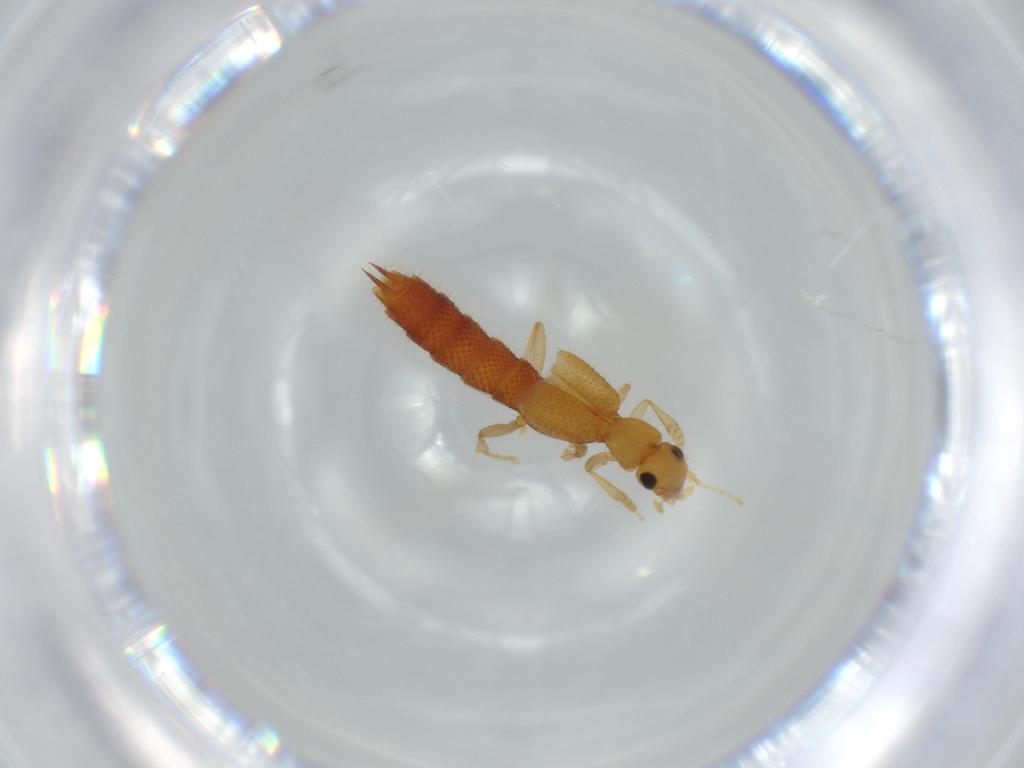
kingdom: Animalia
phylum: Arthropoda
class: Insecta
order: Coleoptera
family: Staphylinidae
